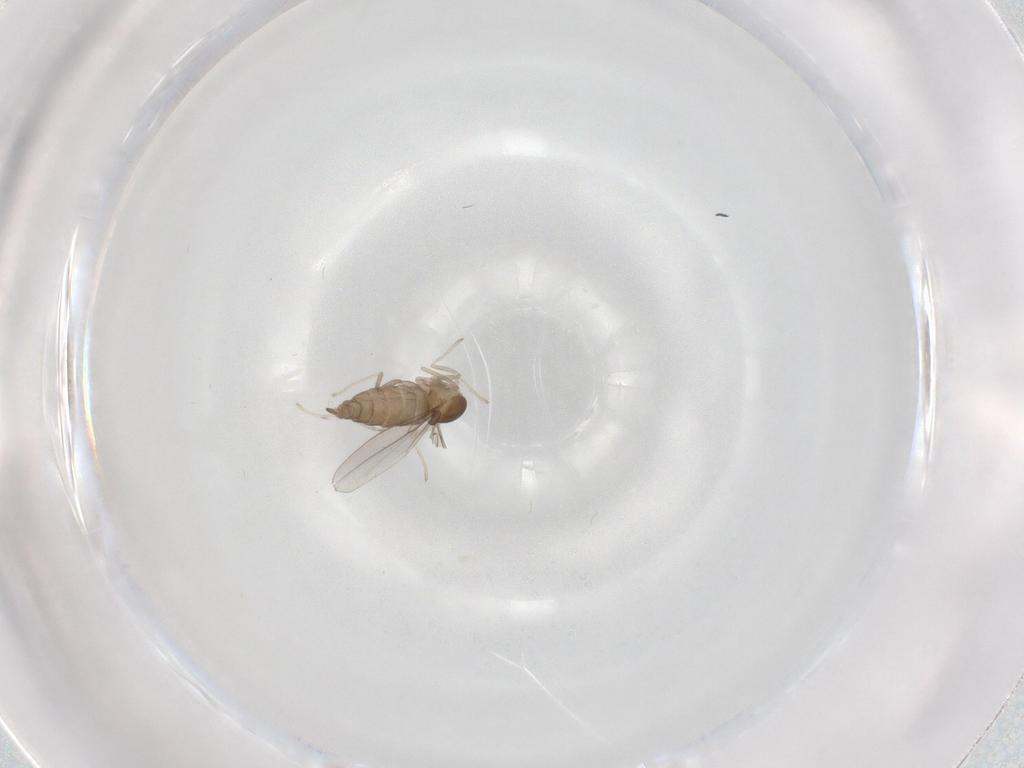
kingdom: Animalia
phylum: Arthropoda
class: Insecta
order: Diptera
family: Cecidomyiidae
